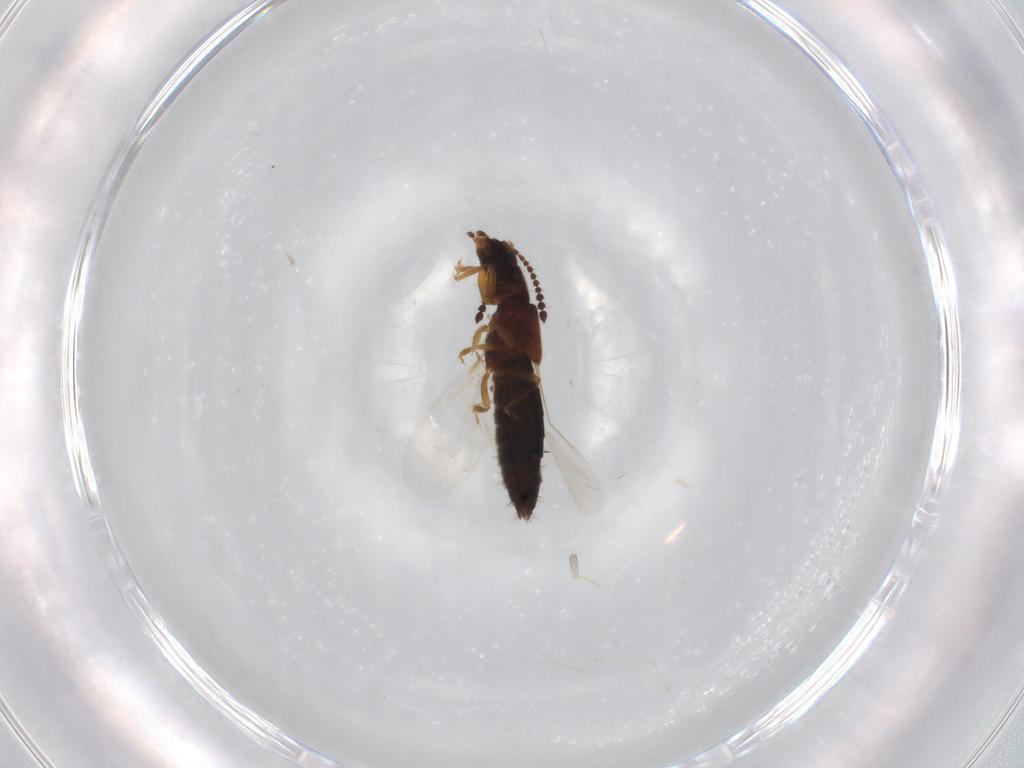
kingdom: Animalia
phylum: Arthropoda
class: Insecta
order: Coleoptera
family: Staphylinidae
